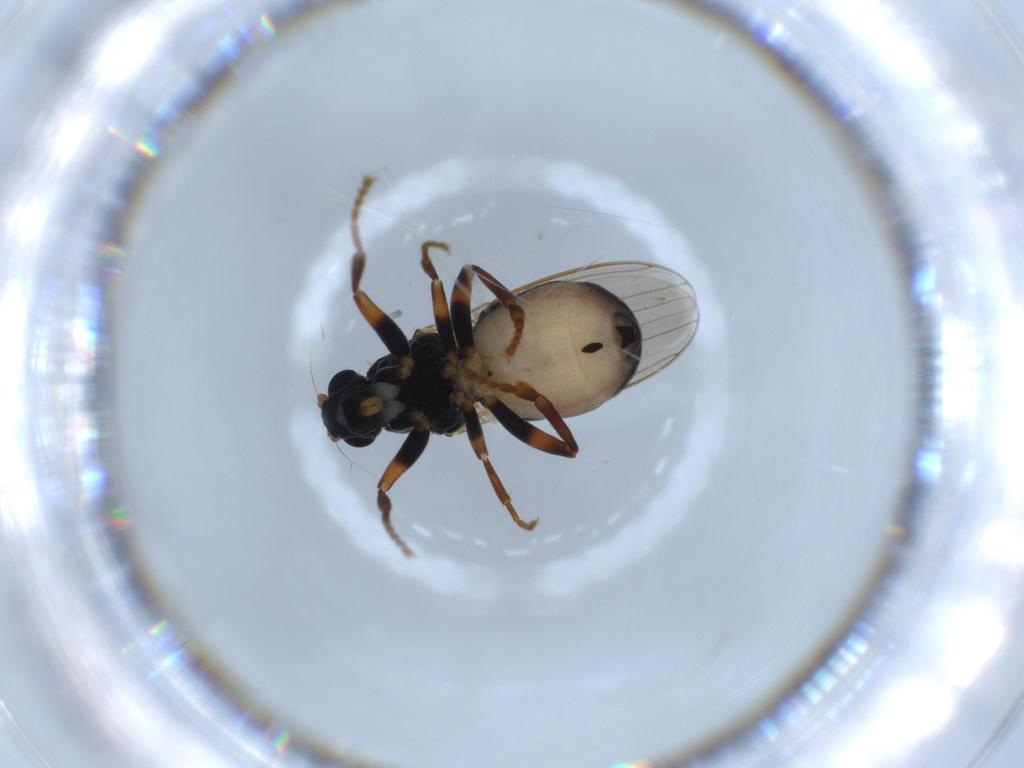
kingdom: Animalia
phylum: Arthropoda
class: Insecta
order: Diptera
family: Sphaeroceridae
